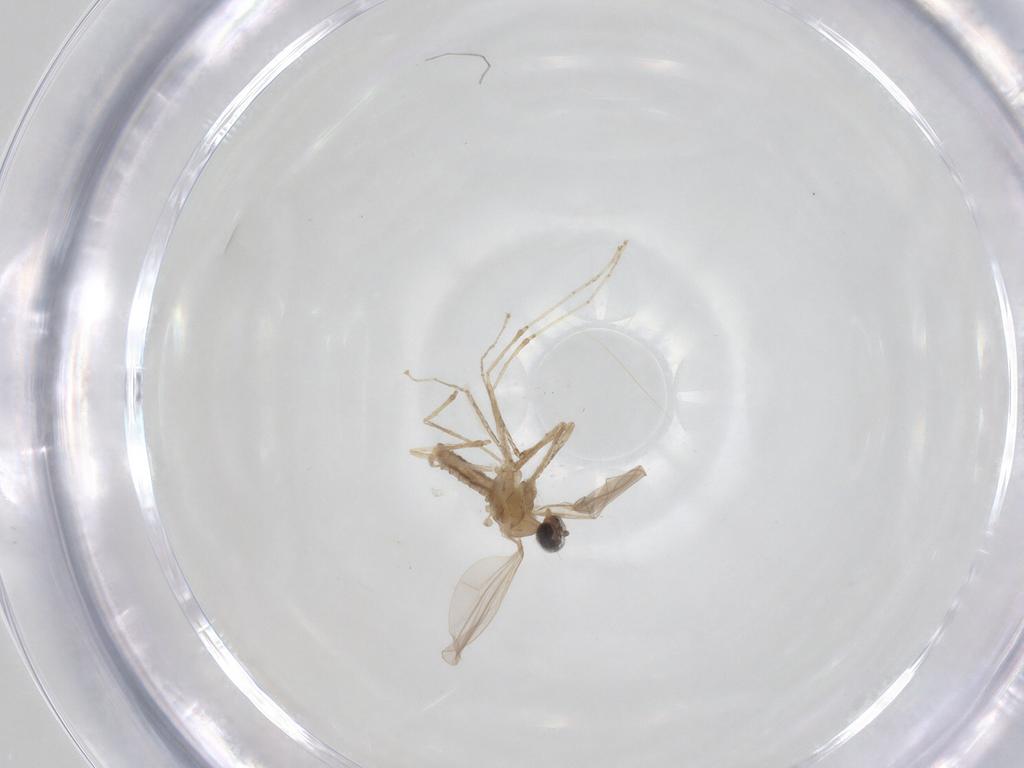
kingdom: Animalia
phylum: Arthropoda
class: Insecta
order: Diptera
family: Cecidomyiidae
